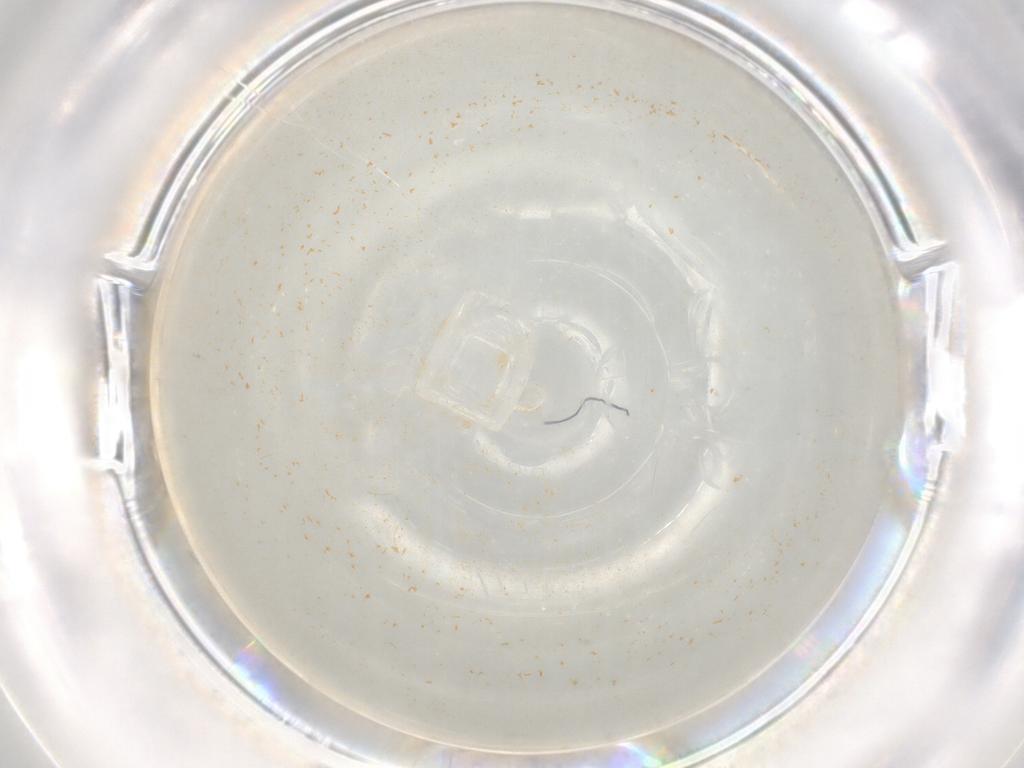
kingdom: Animalia
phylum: Arthropoda
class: Insecta
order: Diptera
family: Cecidomyiidae
